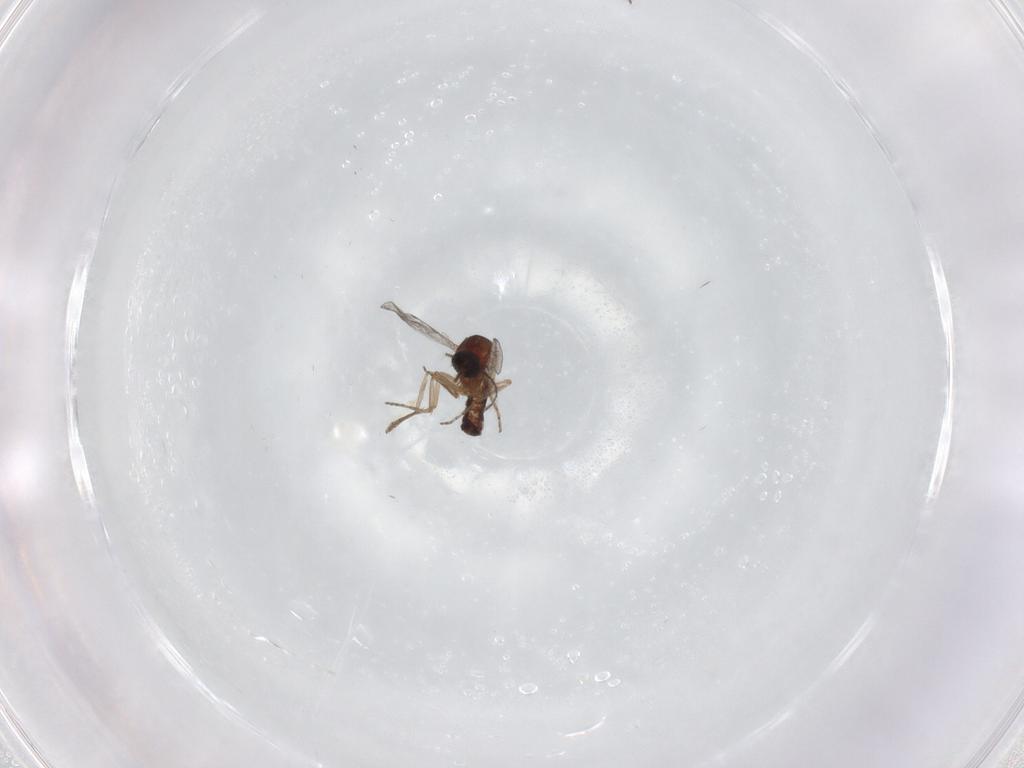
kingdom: Animalia
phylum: Arthropoda
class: Insecta
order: Diptera
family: Ceratopogonidae
